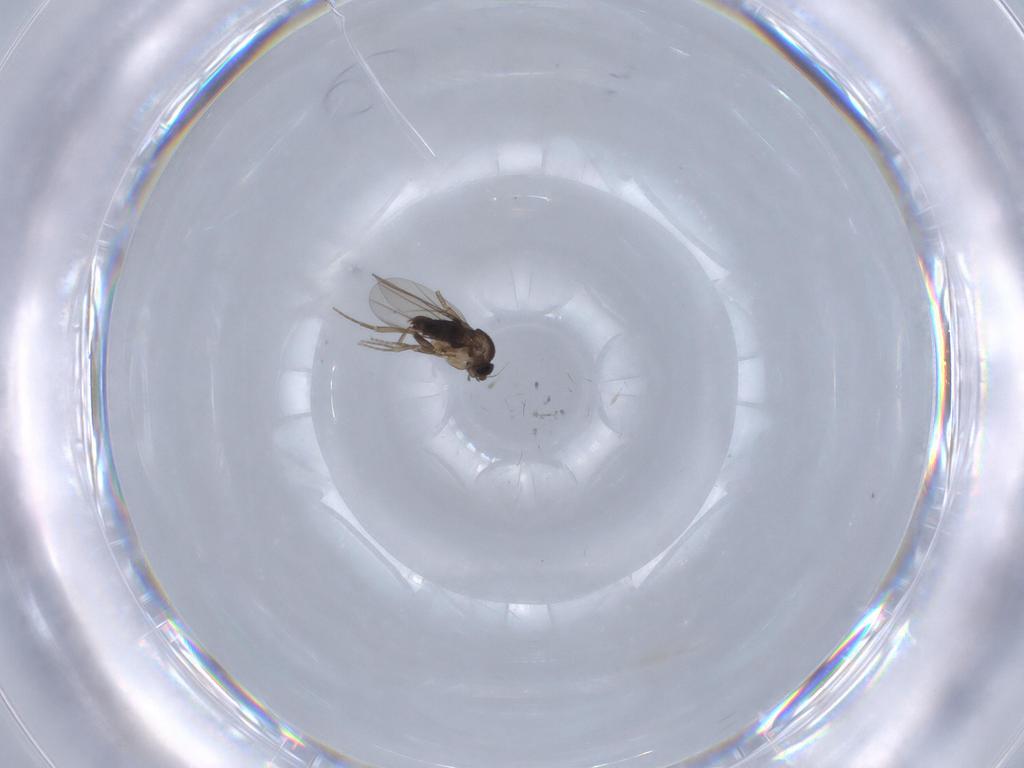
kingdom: Animalia
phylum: Arthropoda
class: Insecta
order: Diptera
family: Phoridae
